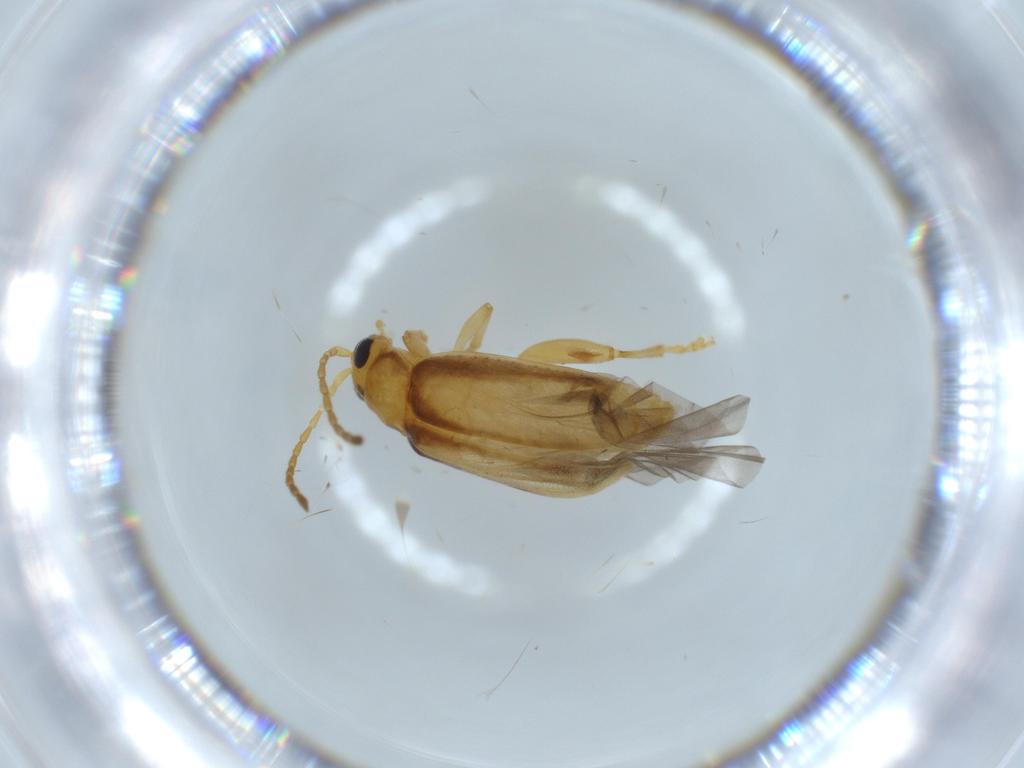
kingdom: Animalia
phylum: Arthropoda
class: Insecta
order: Coleoptera
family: Chrysomelidae
